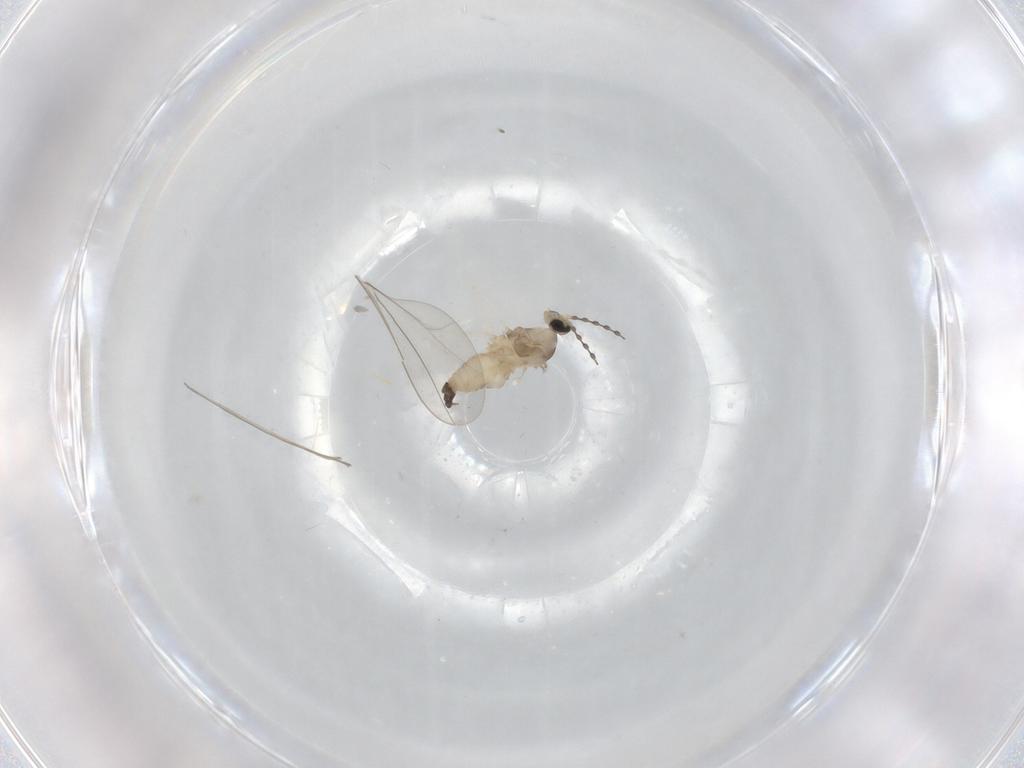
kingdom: Animalia
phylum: Arthropoda
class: Insecta
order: Diptera
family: Cecidomyiidae
